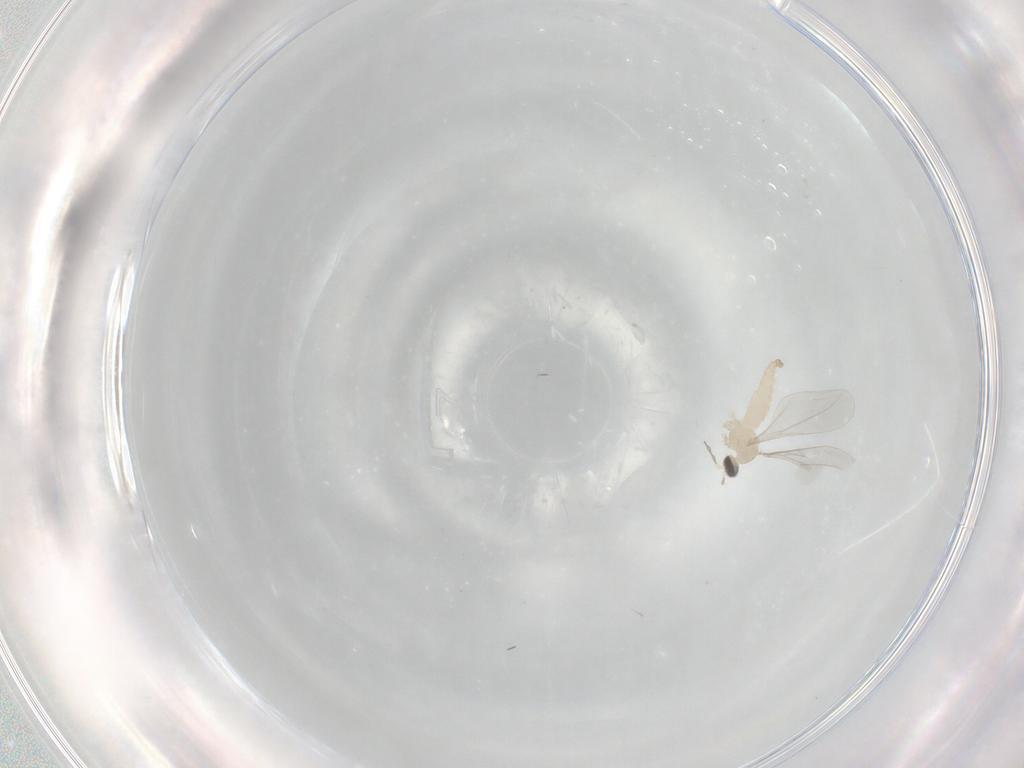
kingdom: Animalia
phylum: Arthropoda
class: Insecta
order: Diptera
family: Cecidomyiidae
